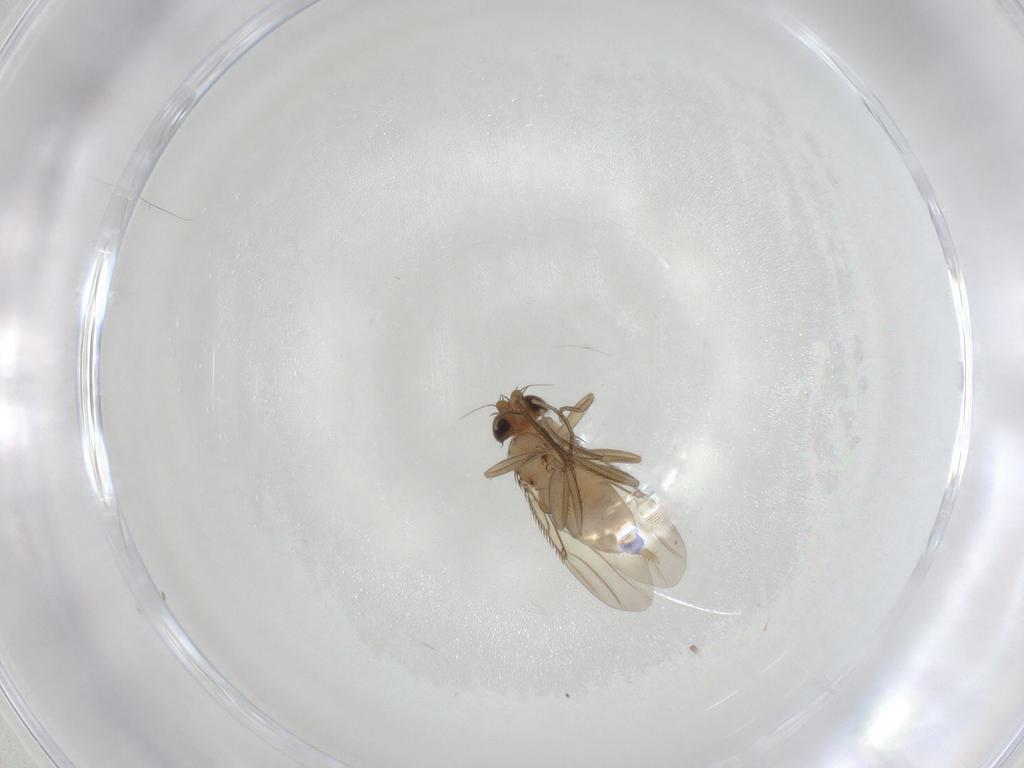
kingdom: Animalia
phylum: Arthropoda
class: Insecta
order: Diptera
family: Phoridae
